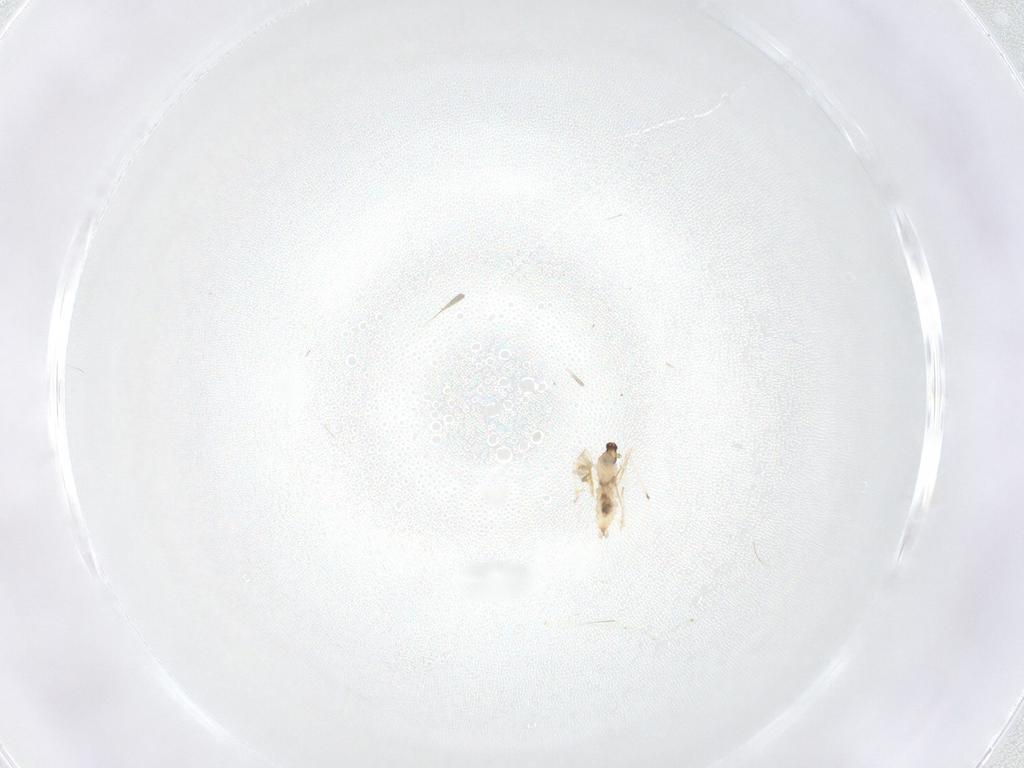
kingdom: Animalia
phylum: Arthropoda
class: Insecta
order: Diptera
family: Cecidomyiidae
